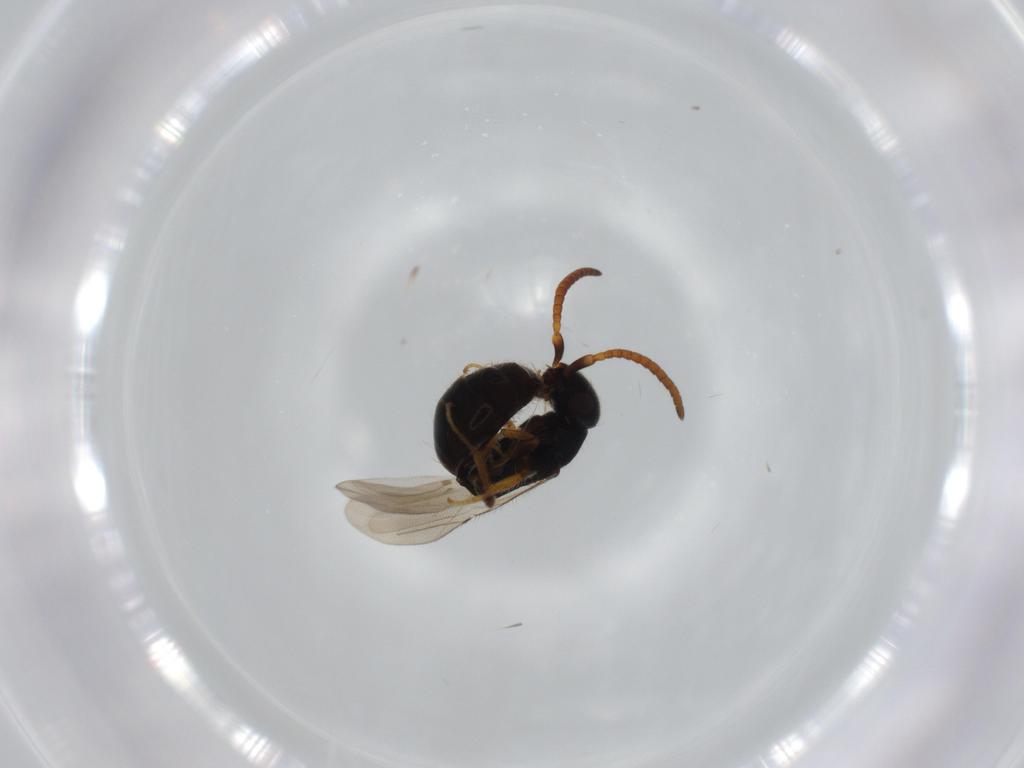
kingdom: Animalia
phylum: Arthropoda
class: Insecta
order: Hymenoptera
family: Bethylidae
